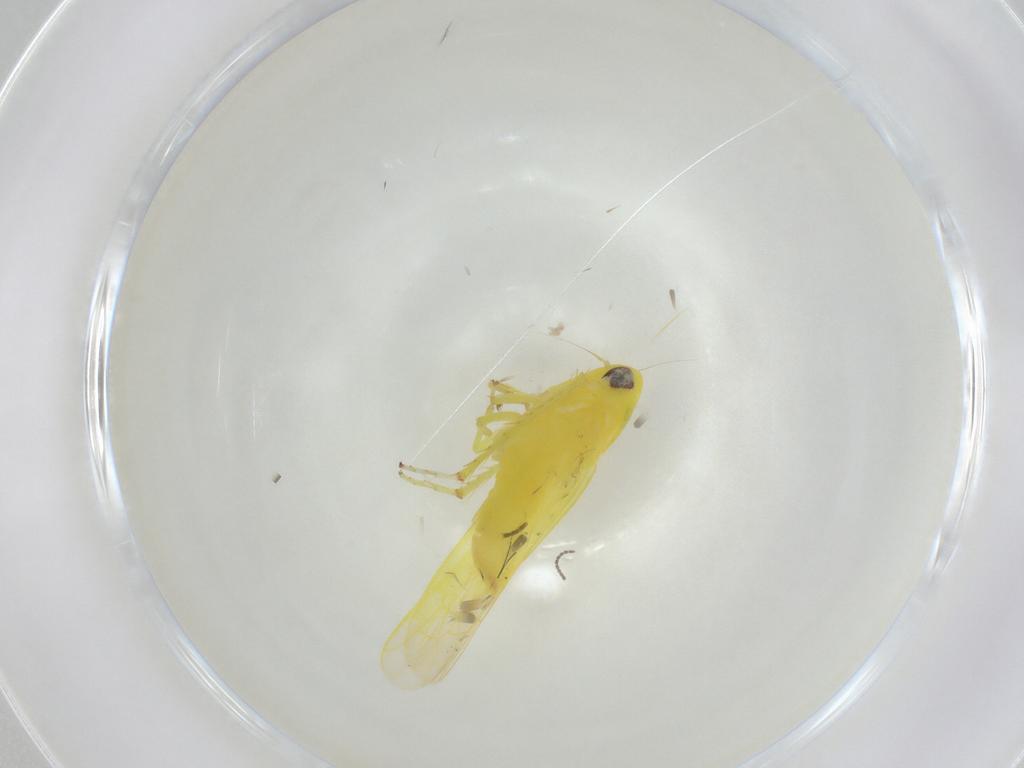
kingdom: Animalia
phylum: Arthropoda
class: Insecta
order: Hemiptera
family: Cicadellidae
